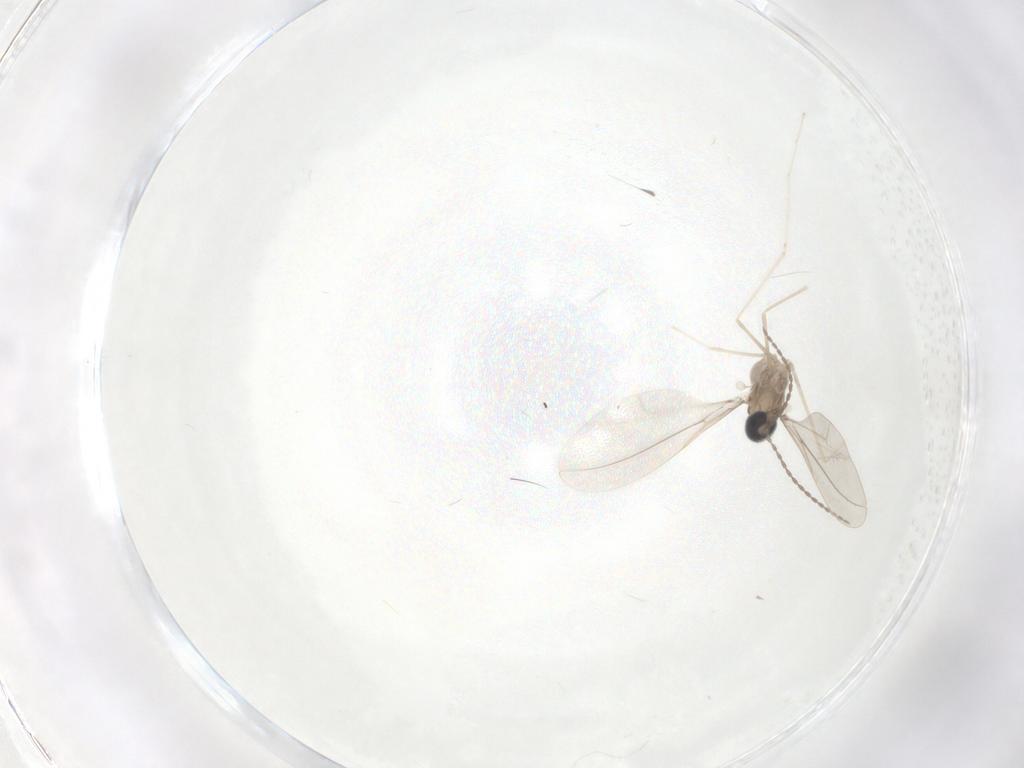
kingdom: Animalia
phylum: Arthropoda
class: Insecta
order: Diptera
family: Cecidomyiidae
